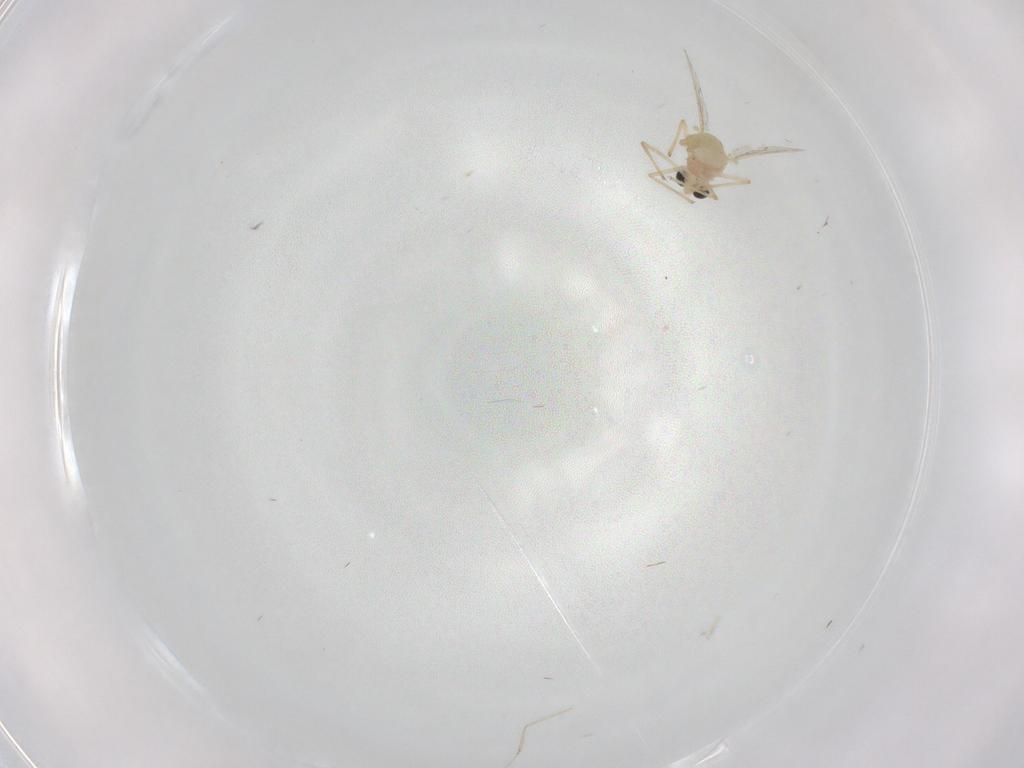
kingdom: Animalia
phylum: Arthropoda
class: Insecta
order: Diptera
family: Chironomidae
